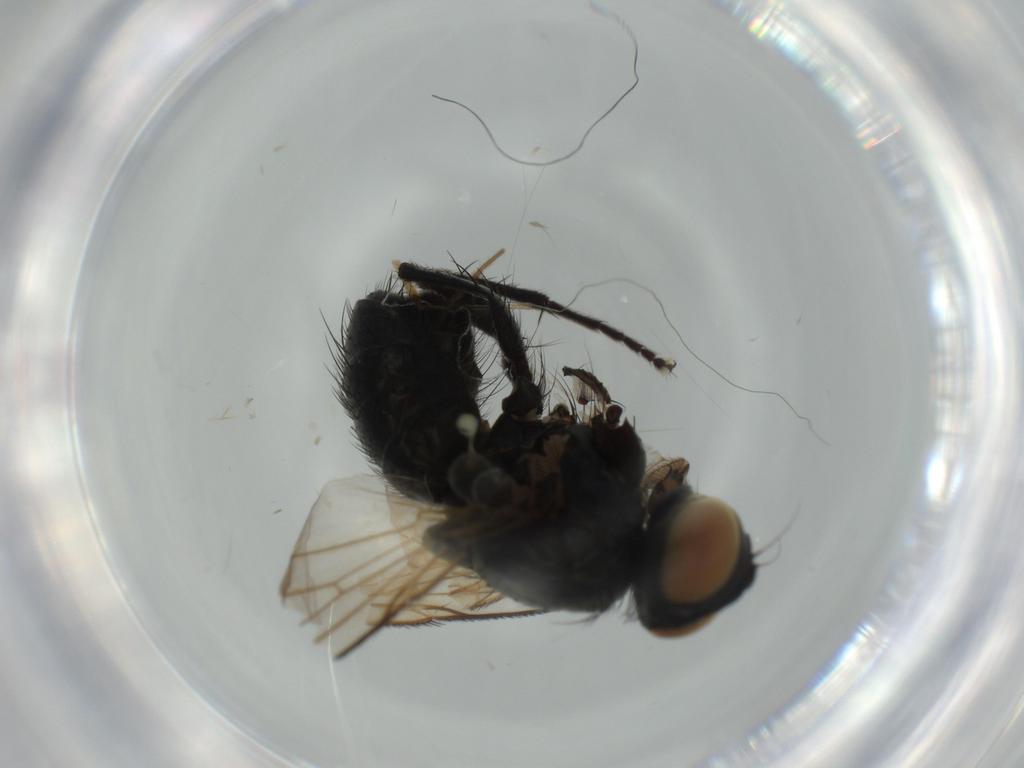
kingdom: Animalia
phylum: Arthropoda
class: Insecta
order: Diptera
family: Muscidae
